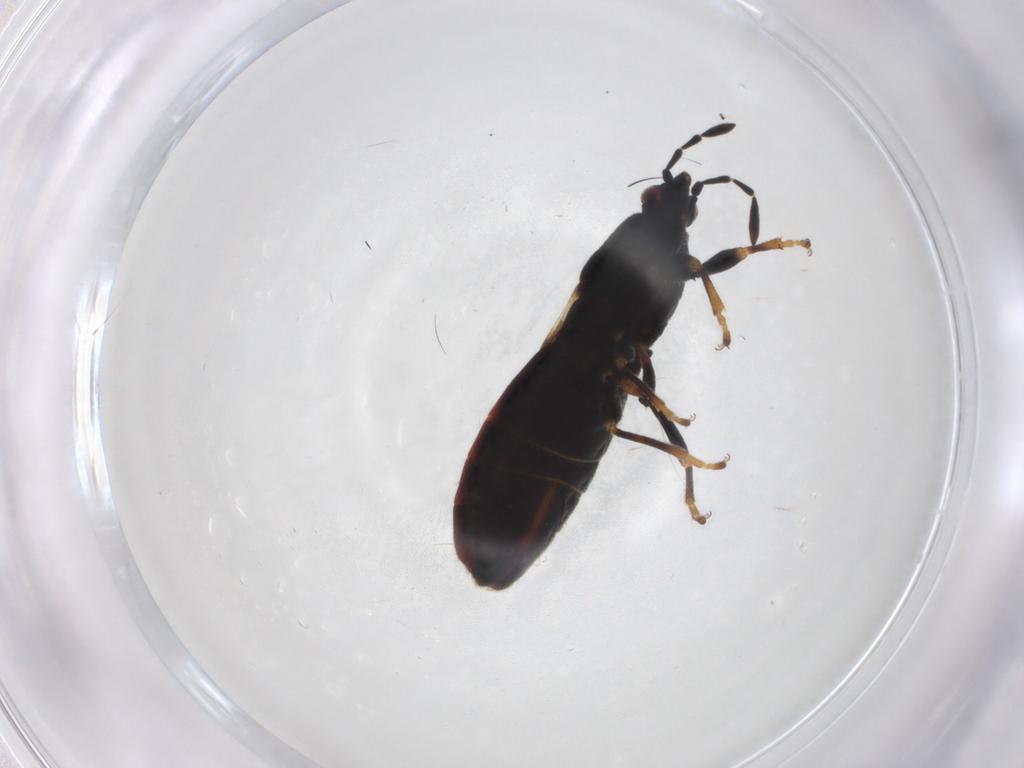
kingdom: Animalia
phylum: Arthropoda
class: Insecta
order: Hemiptera
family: Blissidae
